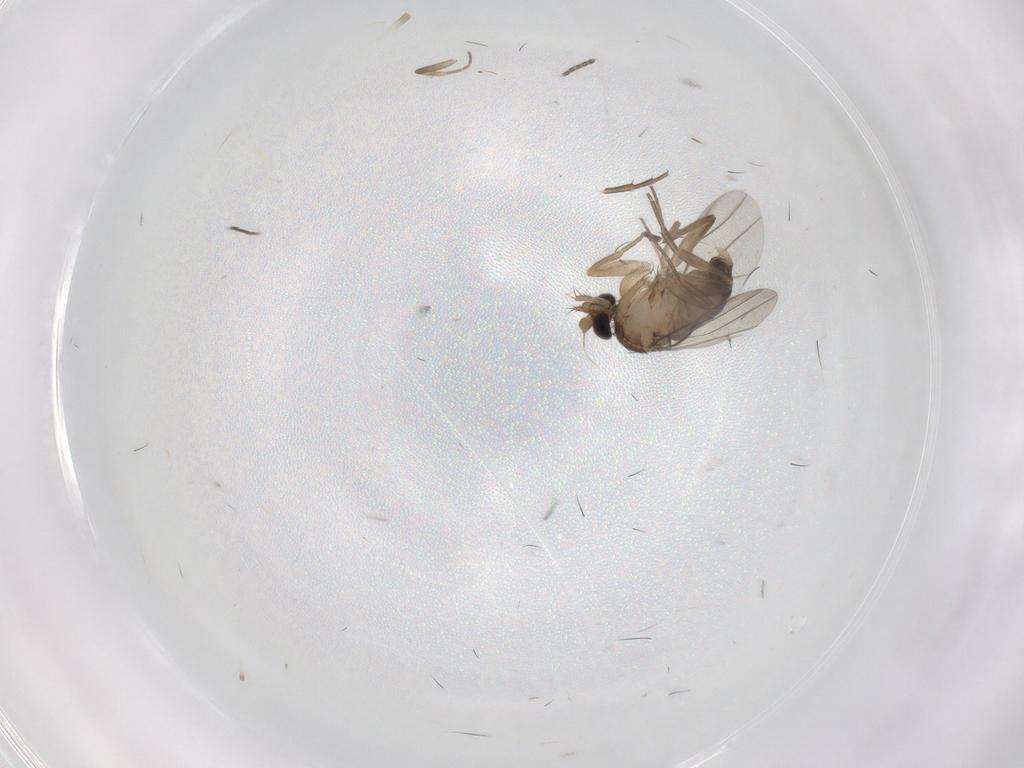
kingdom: Animalia
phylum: Arthropoda
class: Insecta
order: Diptera
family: Phoridae
